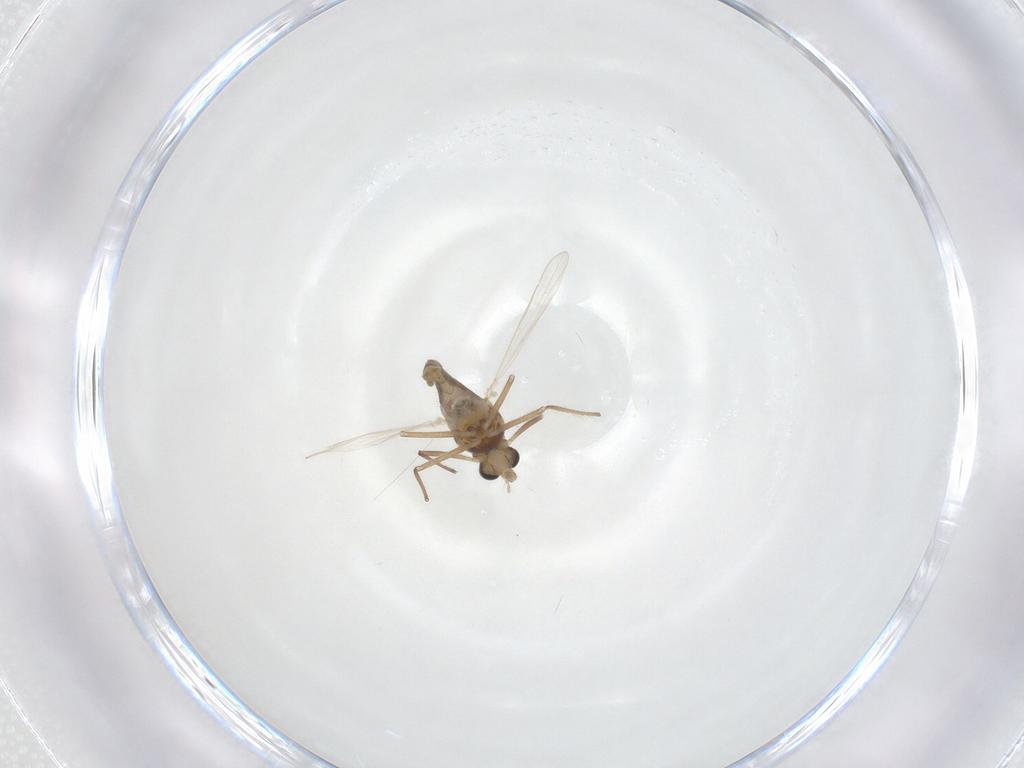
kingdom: Animalia
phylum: Arthropoda
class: Insecta
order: Diptera
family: Chironomidae
